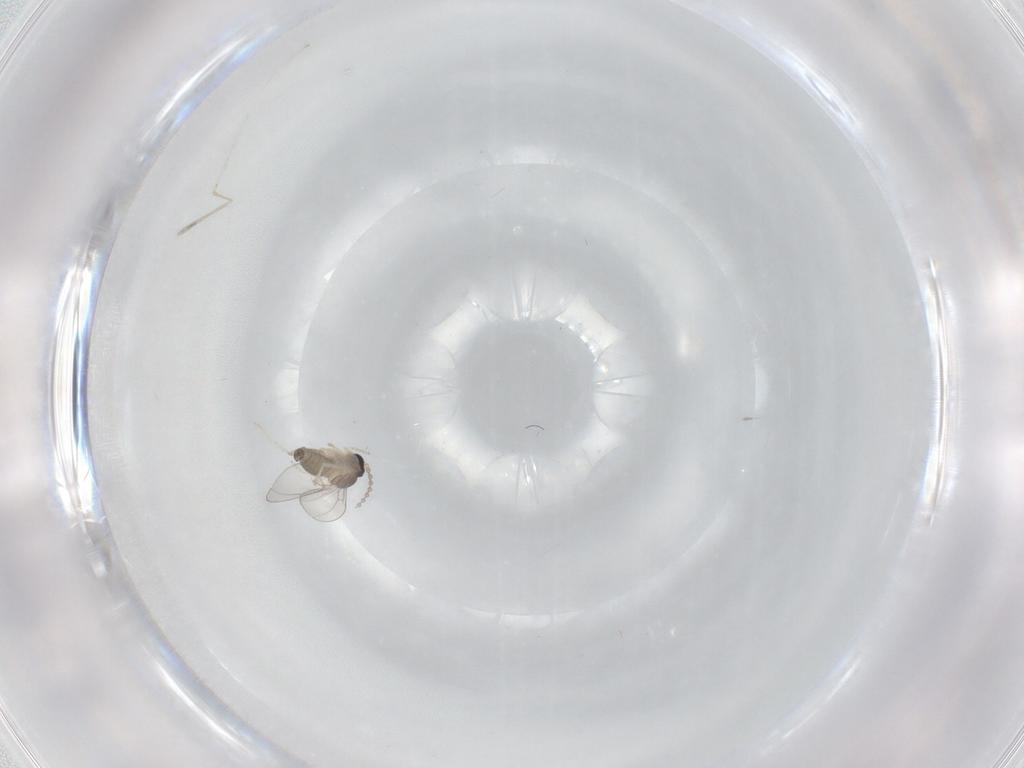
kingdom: Animalia
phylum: Arthropoda
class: Insecta
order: Diptera
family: Cecidomyiidae
